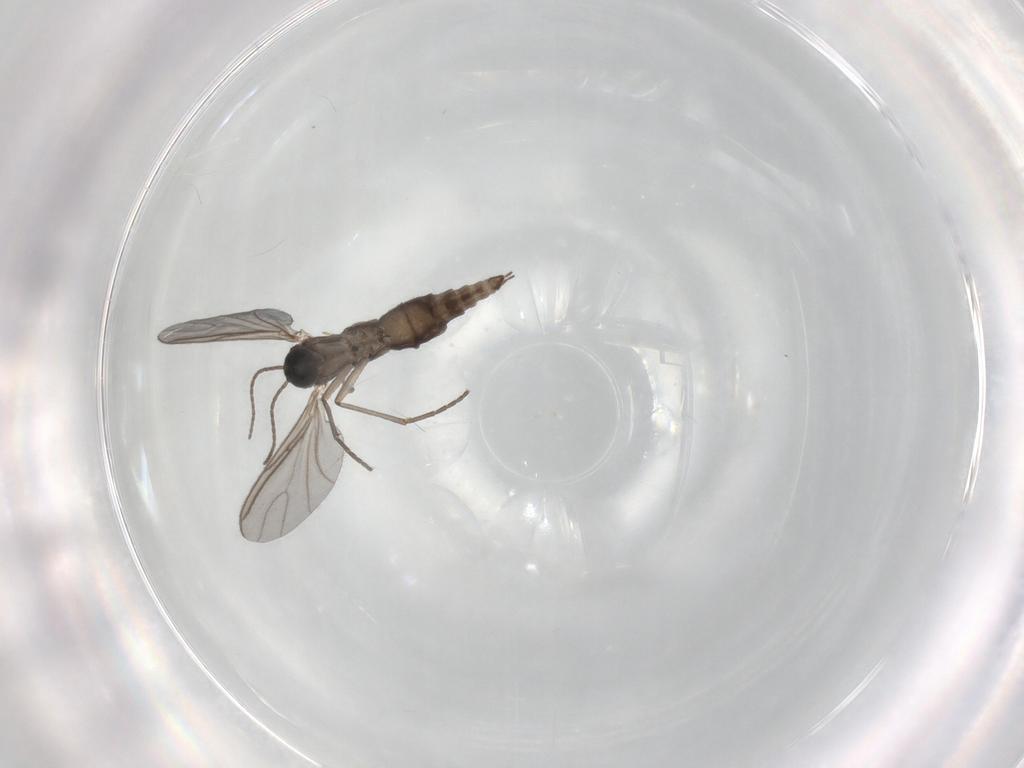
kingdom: Animalia
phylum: Arthropoda
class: Insecta
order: Diptera
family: Sciaridae
